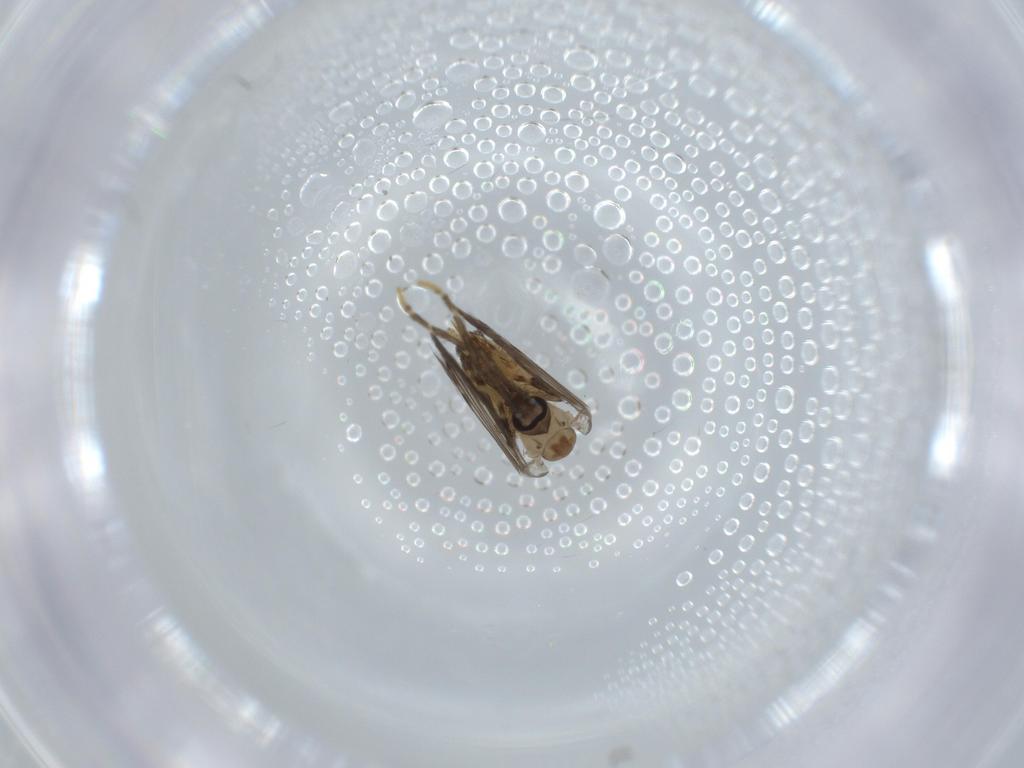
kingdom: Animalia
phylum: Arthropoda
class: Insecta
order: Diptera
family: Psychodidae
